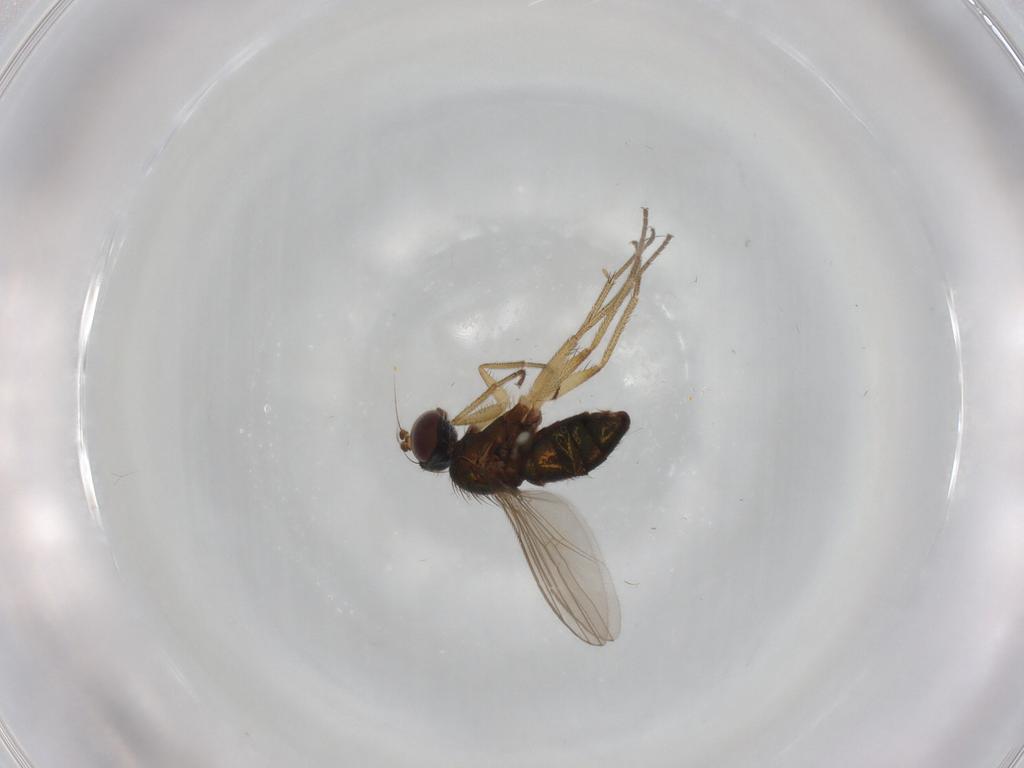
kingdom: Animalia
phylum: Arthropoda
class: Insecta
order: Diptera
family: Dolichopodidae
